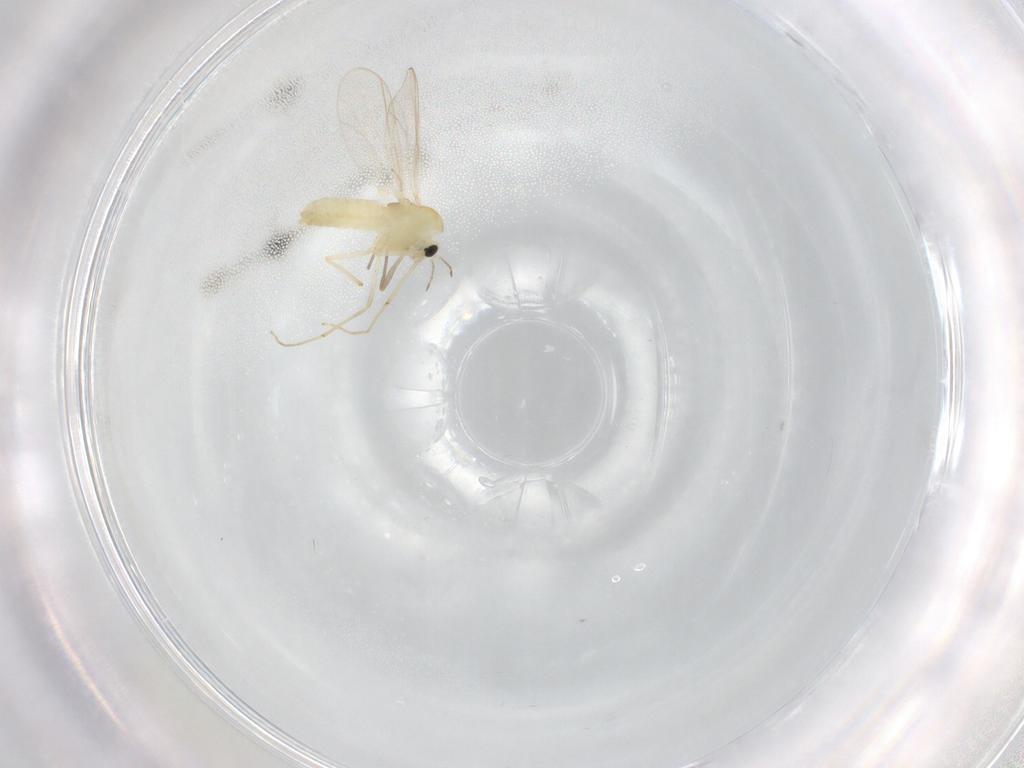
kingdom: Animalia
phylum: Arthropoda
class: Insecta
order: Diptera
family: Chironomidae
